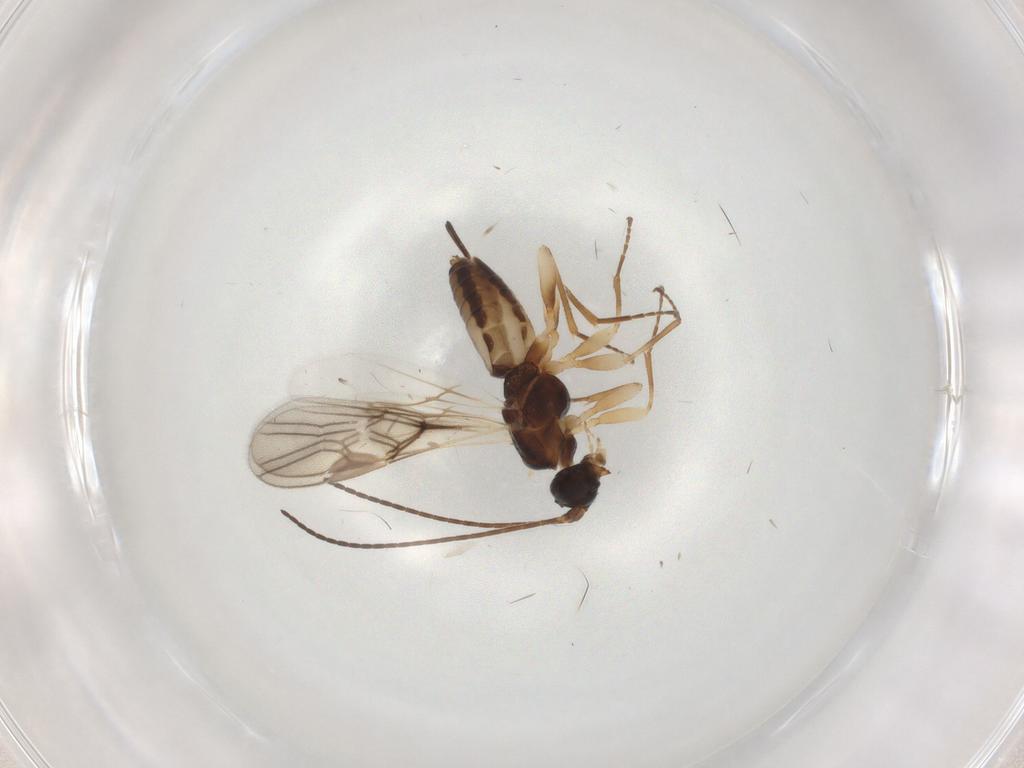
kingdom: Animalia
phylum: Arthropoda
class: Insecta
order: Hymenoptera
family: Braconidae
